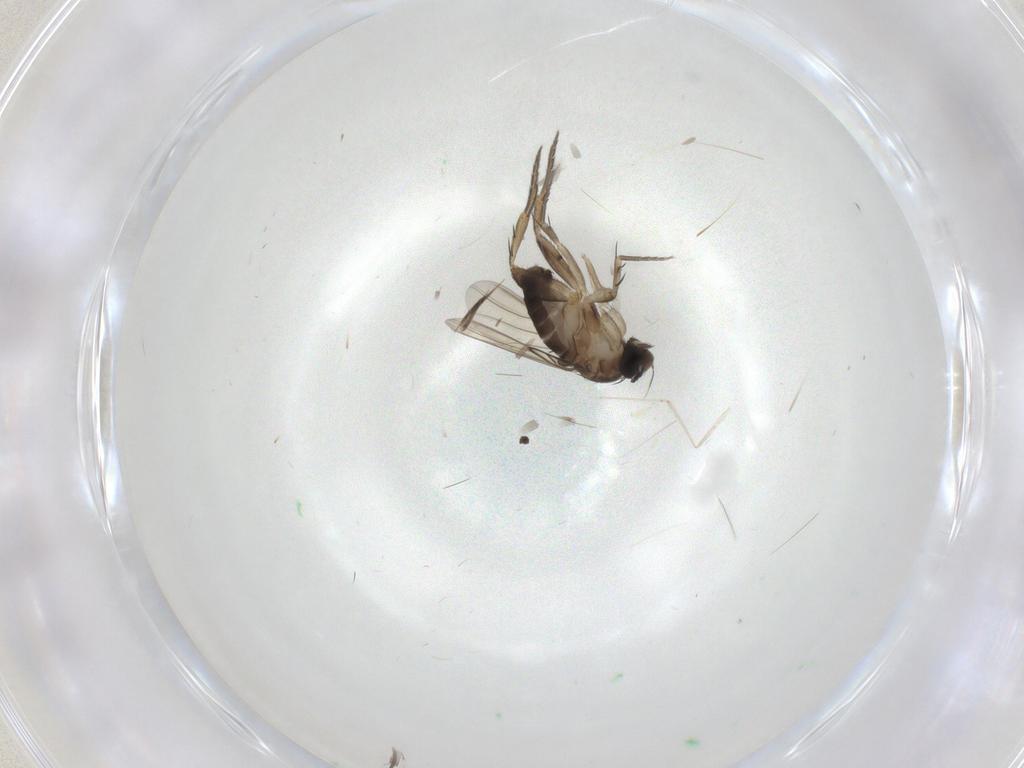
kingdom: Animalia
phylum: Arthropoda
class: Insecta
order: Diptera
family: Phoridae
